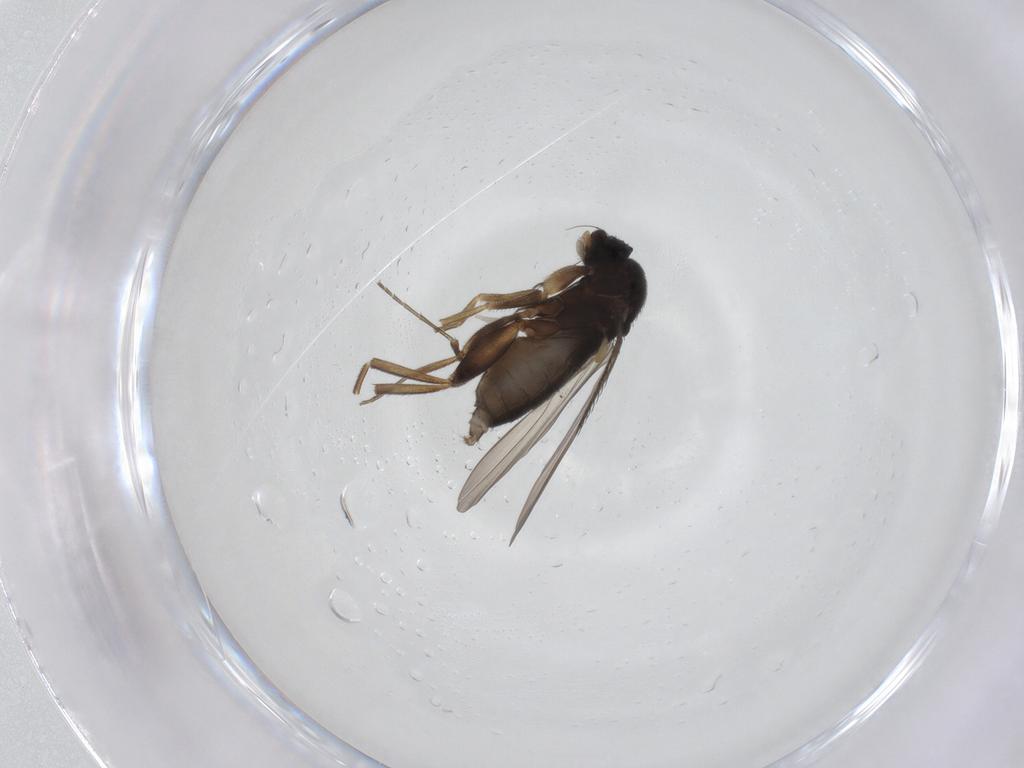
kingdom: Animalia
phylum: Arthropoda
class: Insecta
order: Diptera
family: Chironomidae
